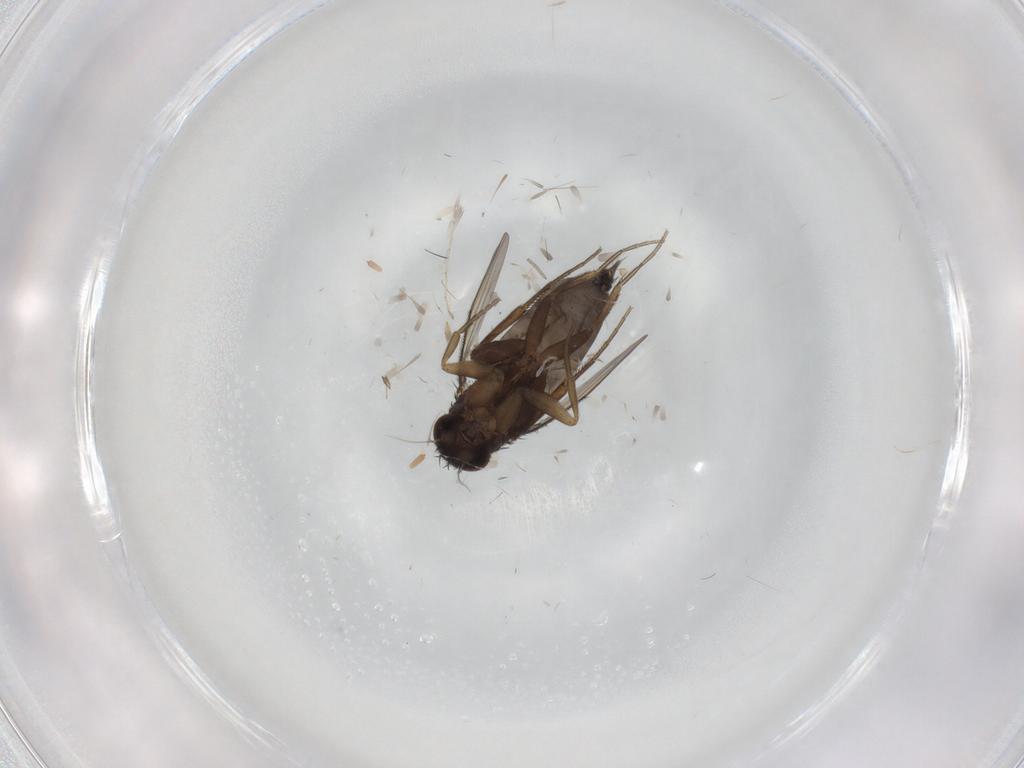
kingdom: Animalia
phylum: Arthropoda
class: Insecta
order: Diptera
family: Phoridae
